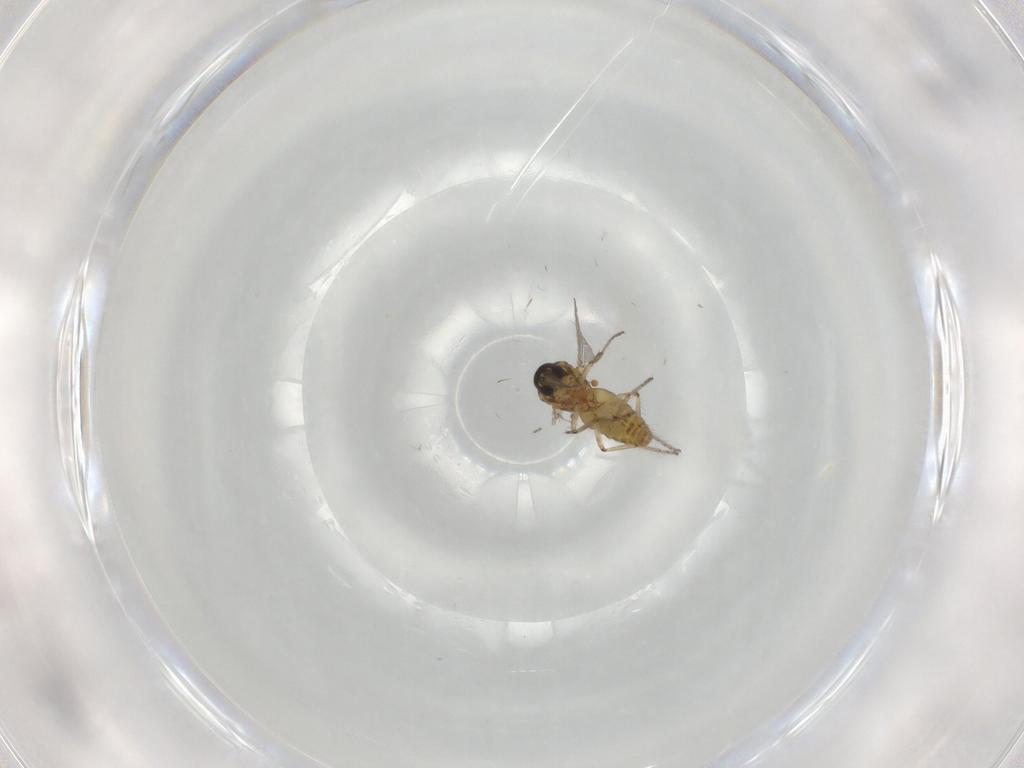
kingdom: Animalia
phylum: Arthropoda
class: Insecta
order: Diptera
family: Ceratopogonidae
